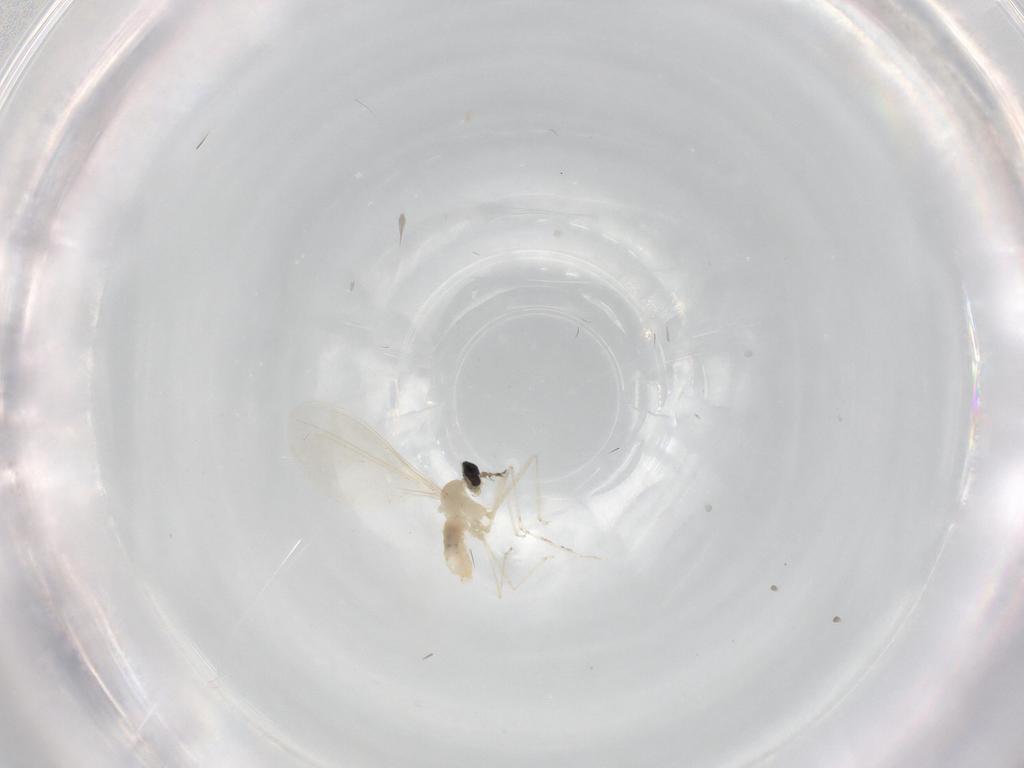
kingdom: Animalia
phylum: Arthropoda
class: Insecta
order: Diptera
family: Cecidomyiidae
